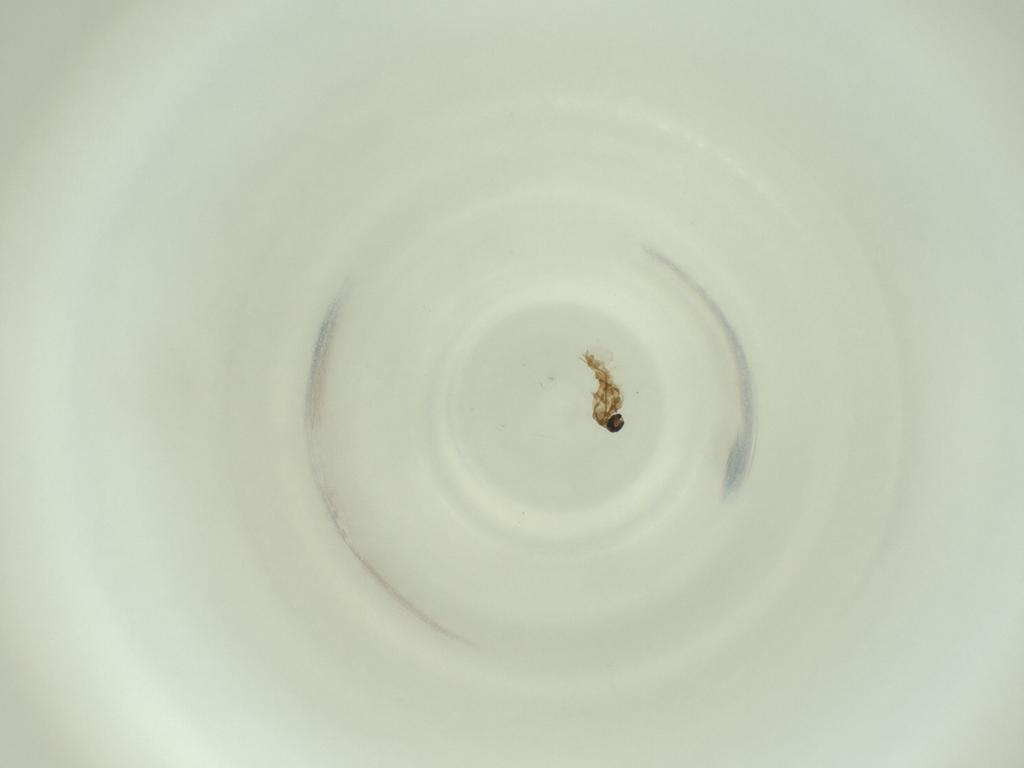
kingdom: Animalia
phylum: Arthropoda
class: Insecta
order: Diptera
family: Cecidomyiidae
